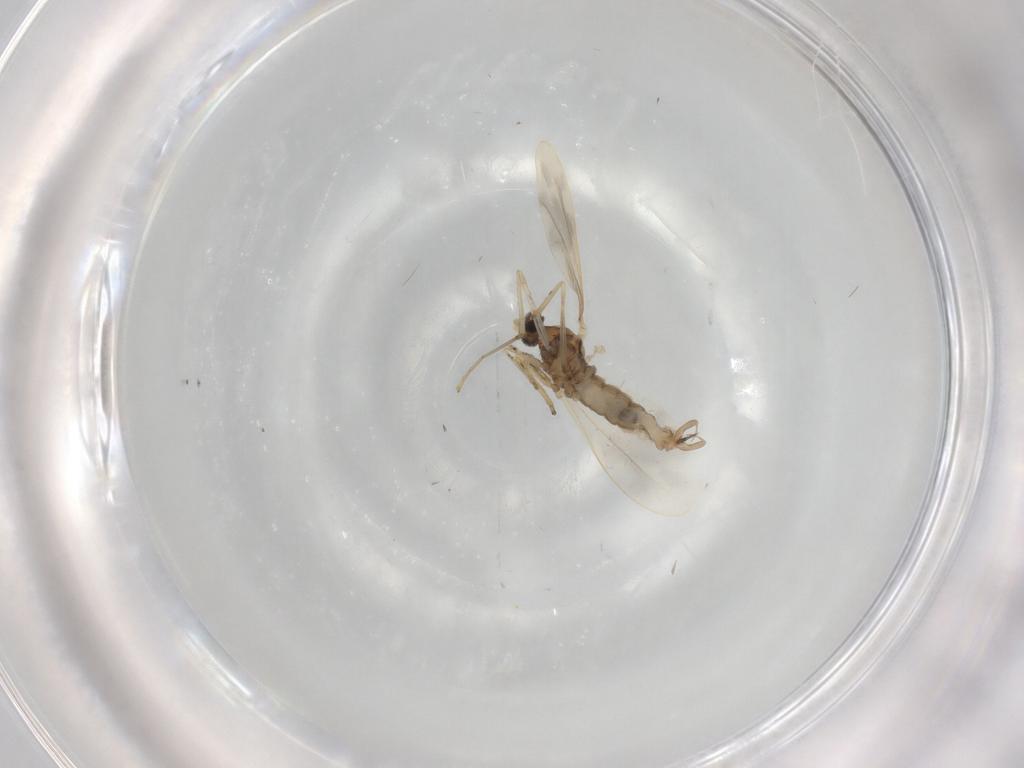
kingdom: Animalia
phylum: Arthropoda
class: Insecta
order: Diptera
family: Cecidomyiidae
